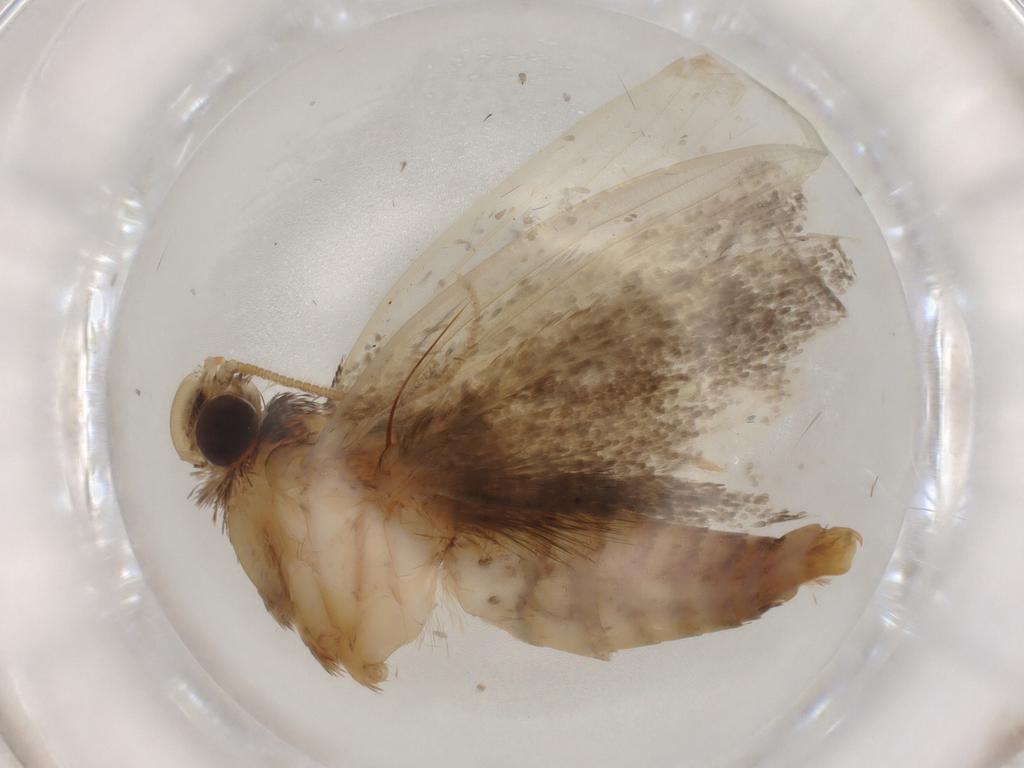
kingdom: Animalia
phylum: Arthropoda
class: Insecta
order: Lepidoptera
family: Tineidae
